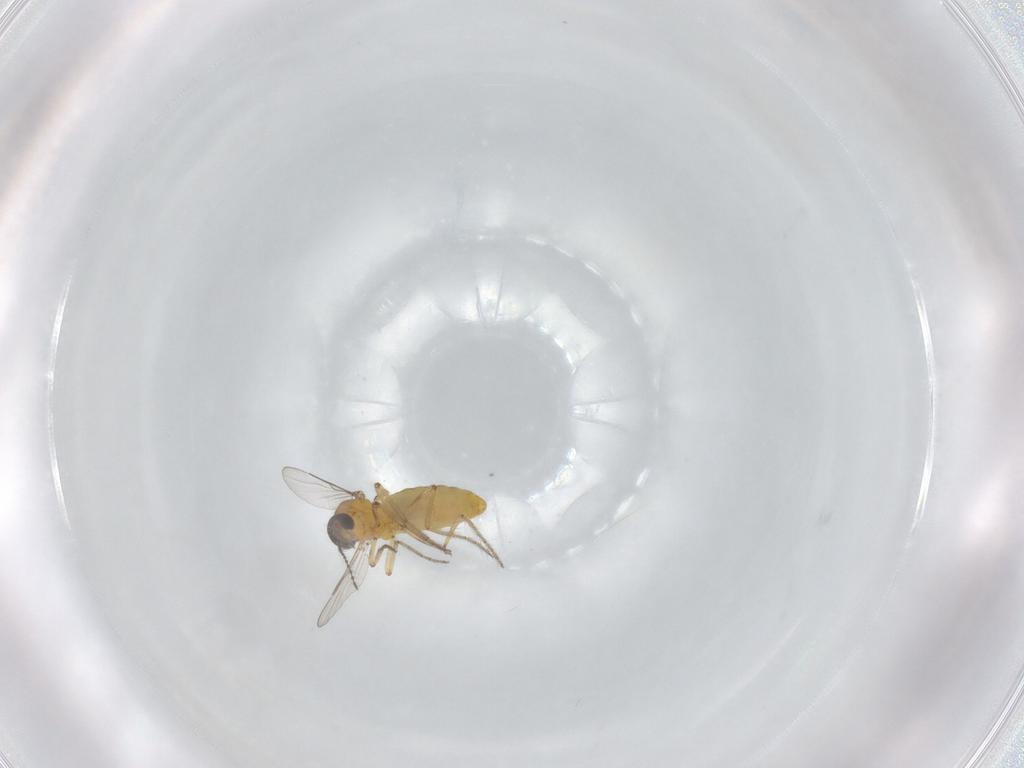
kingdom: Animalia
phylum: Arthropoda
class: Insecta
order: Diptera
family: Ceratopogonidae
